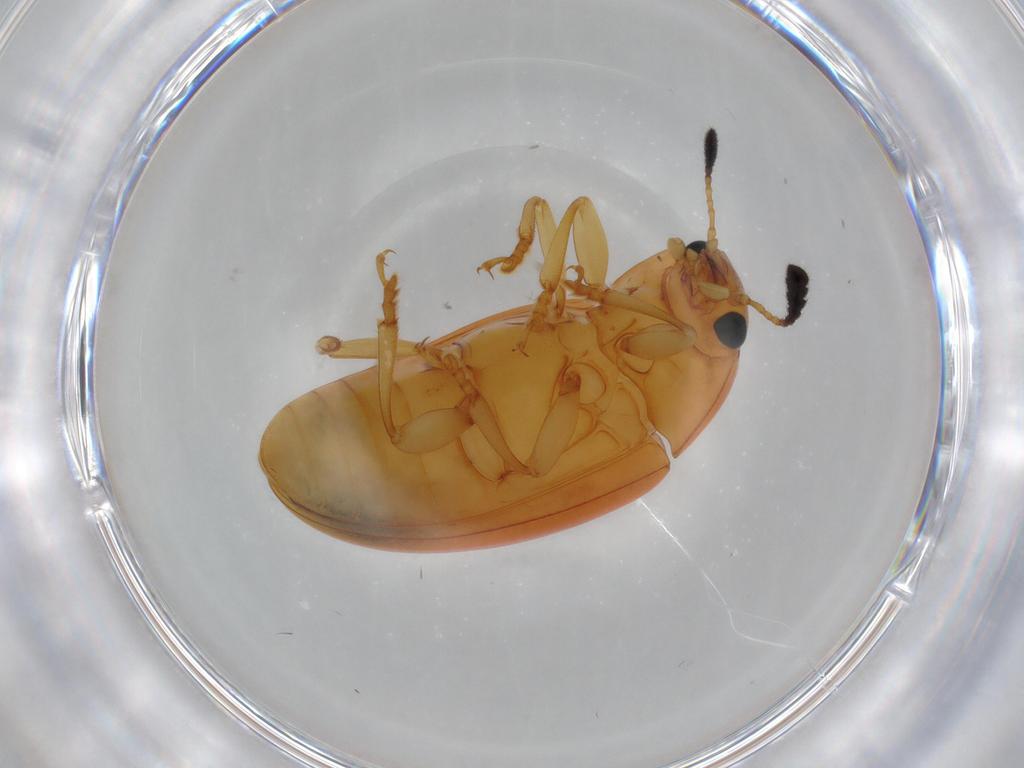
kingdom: Animalia
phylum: Arthropoda
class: Insecta
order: Coleoptera
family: Erotylidae
